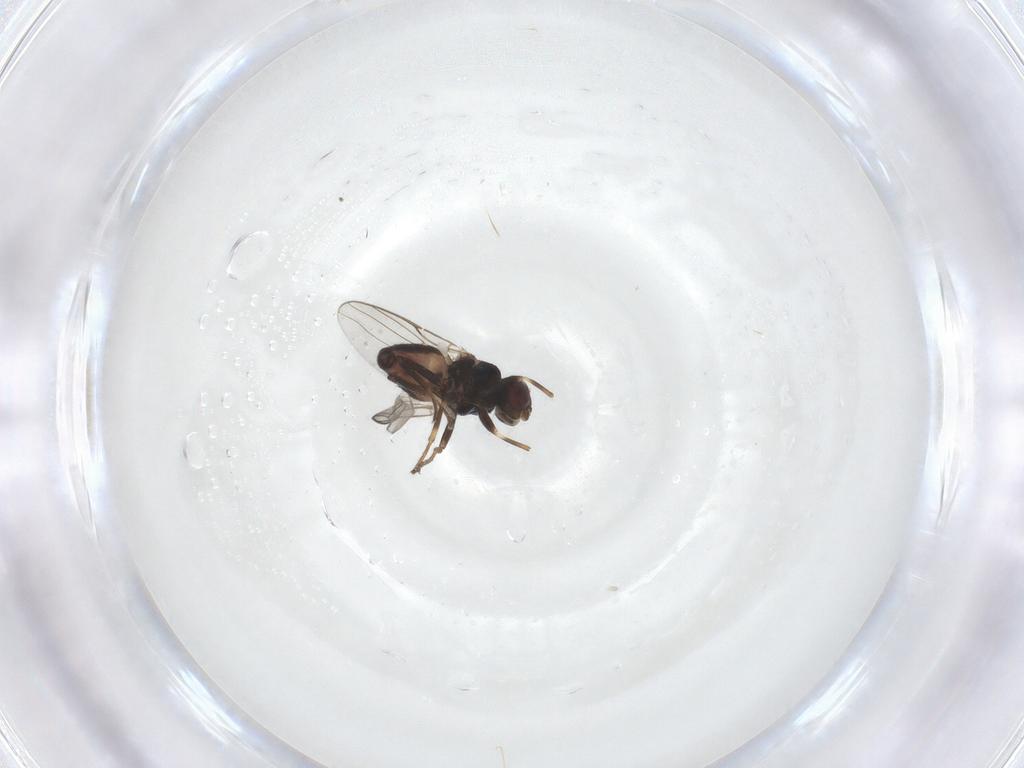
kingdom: Animalia
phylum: Arthropoda
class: Insecta
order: Diptera
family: Chloropidae
